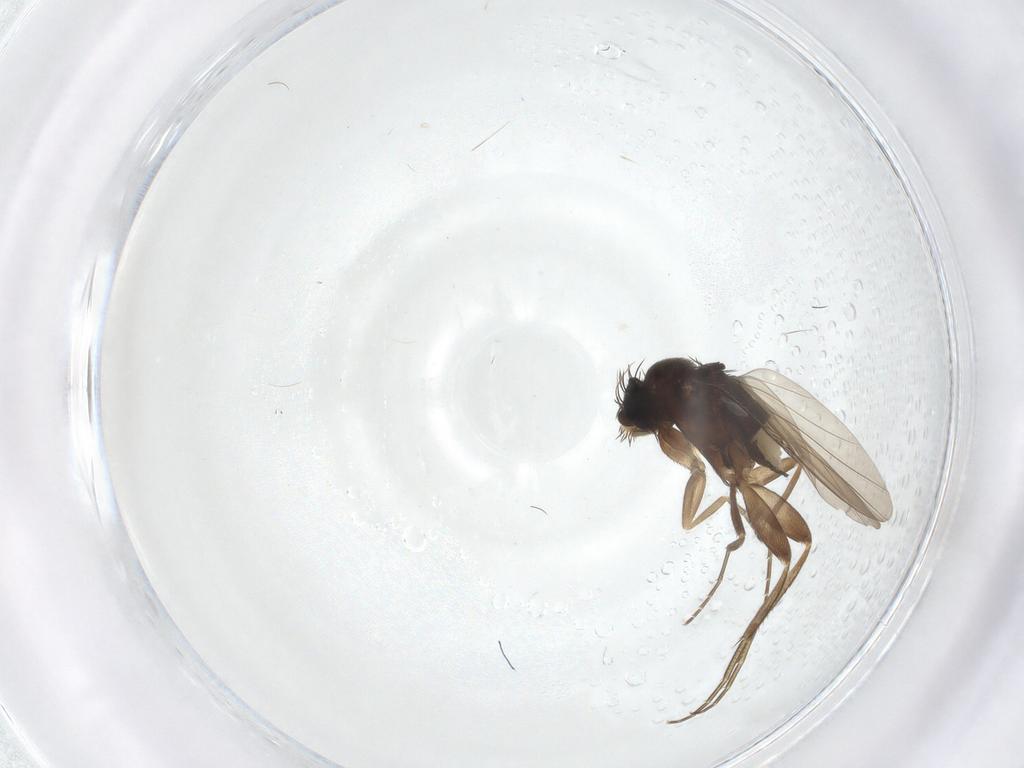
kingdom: Animalia
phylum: Arthropoda
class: Insecta
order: Diptera
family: Phoridae
